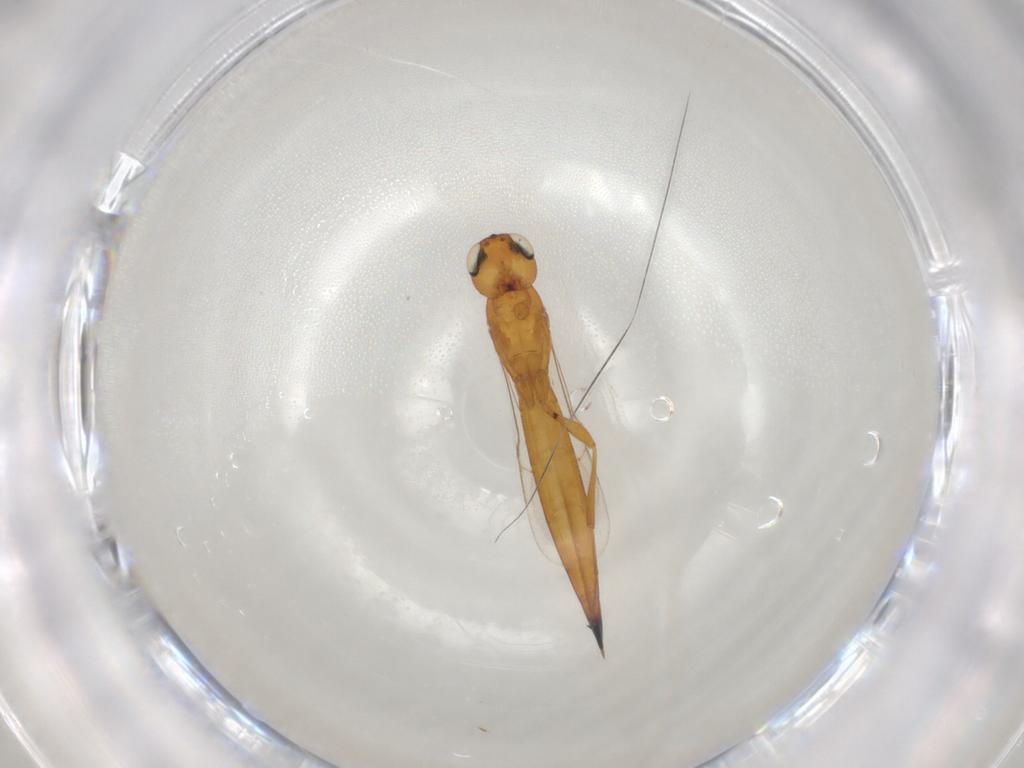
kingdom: Animalia
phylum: Arthropoda
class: Insecta
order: Hymenoptera
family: Scelionidae
